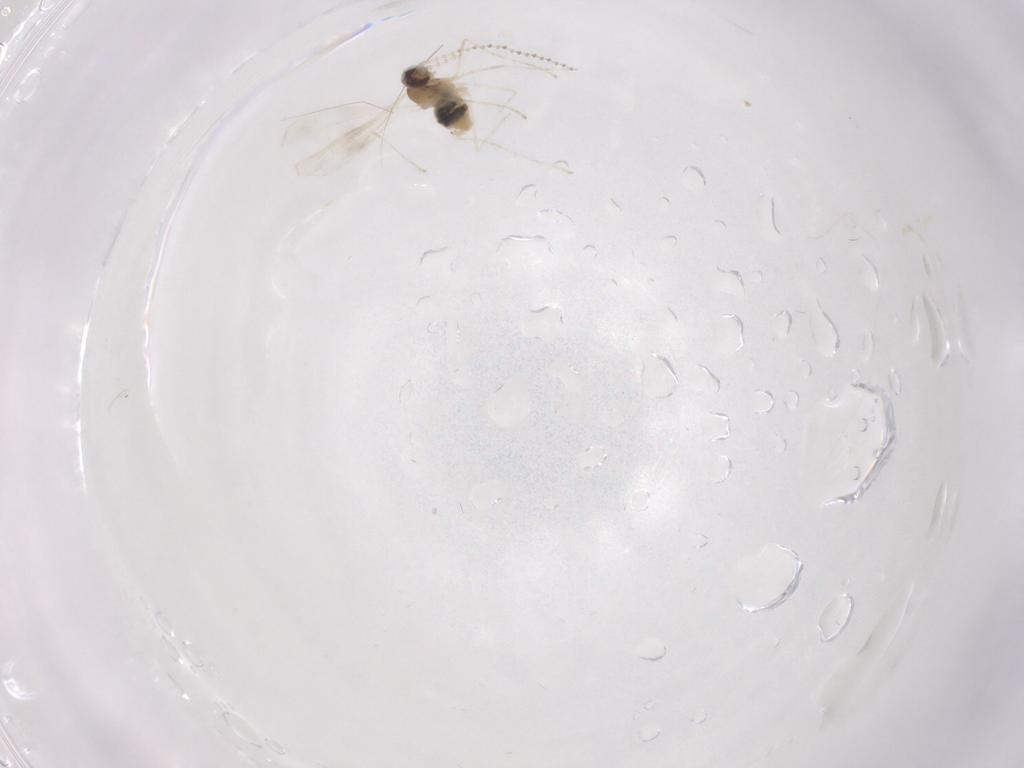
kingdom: Animalia
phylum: Arthropoda
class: Insecta
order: Diptera
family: Cecidomyiidae
